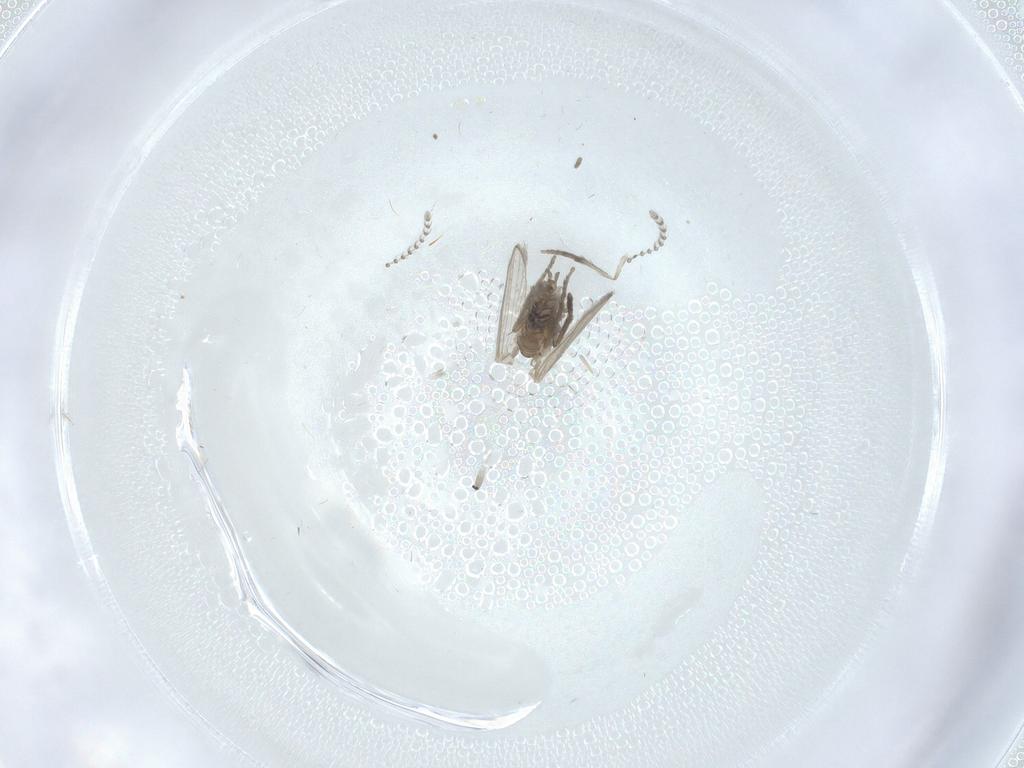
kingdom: Animalia
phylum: Arthropoda
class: Insecta
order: Diptera
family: Psychodidae
